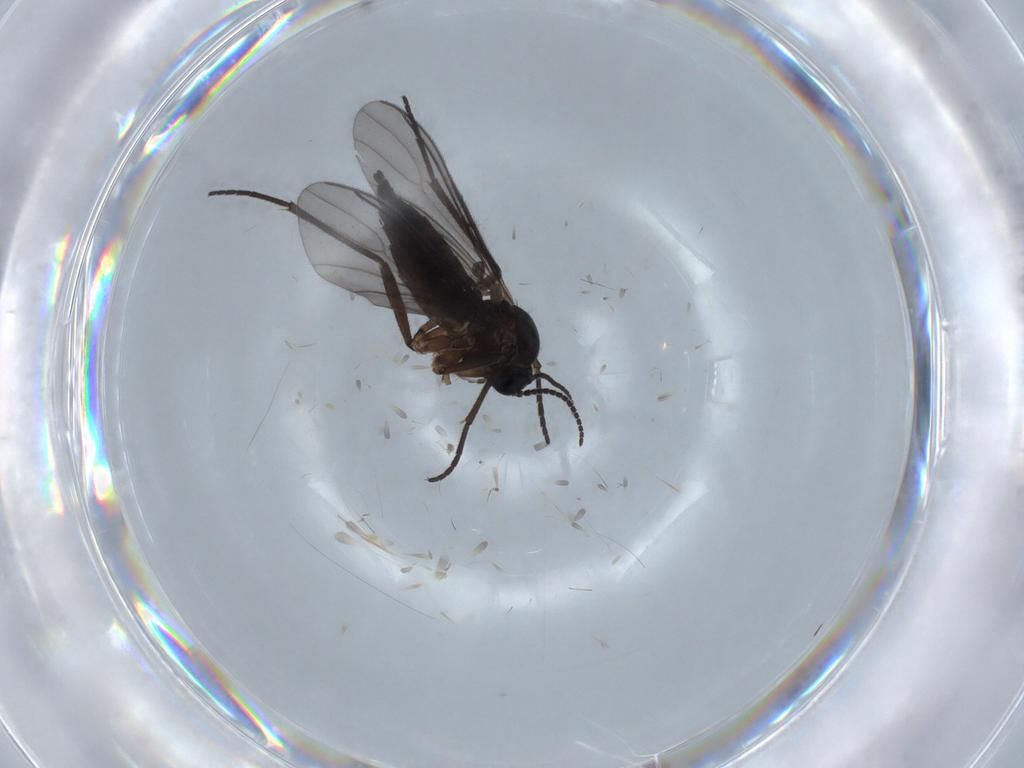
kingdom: Animalia
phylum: Arthropoda
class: Insecta
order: Diptera
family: Sciaridae
